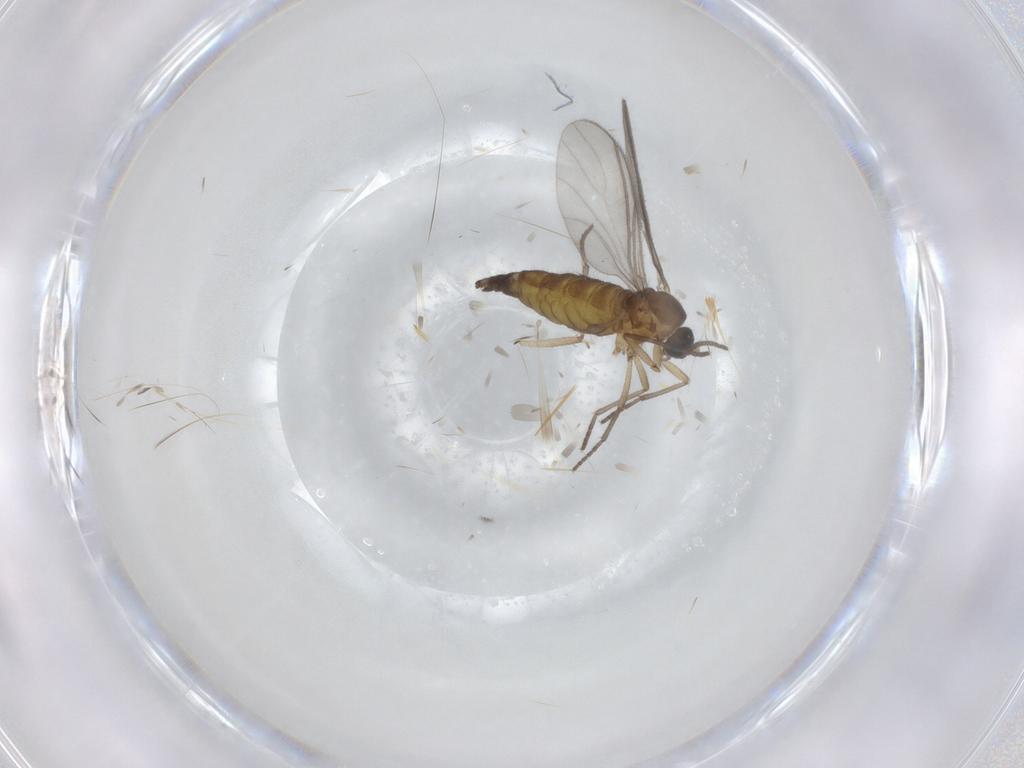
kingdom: Animalia
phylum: Arthropoda
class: Insecta
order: Diptera
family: Sciaridae
